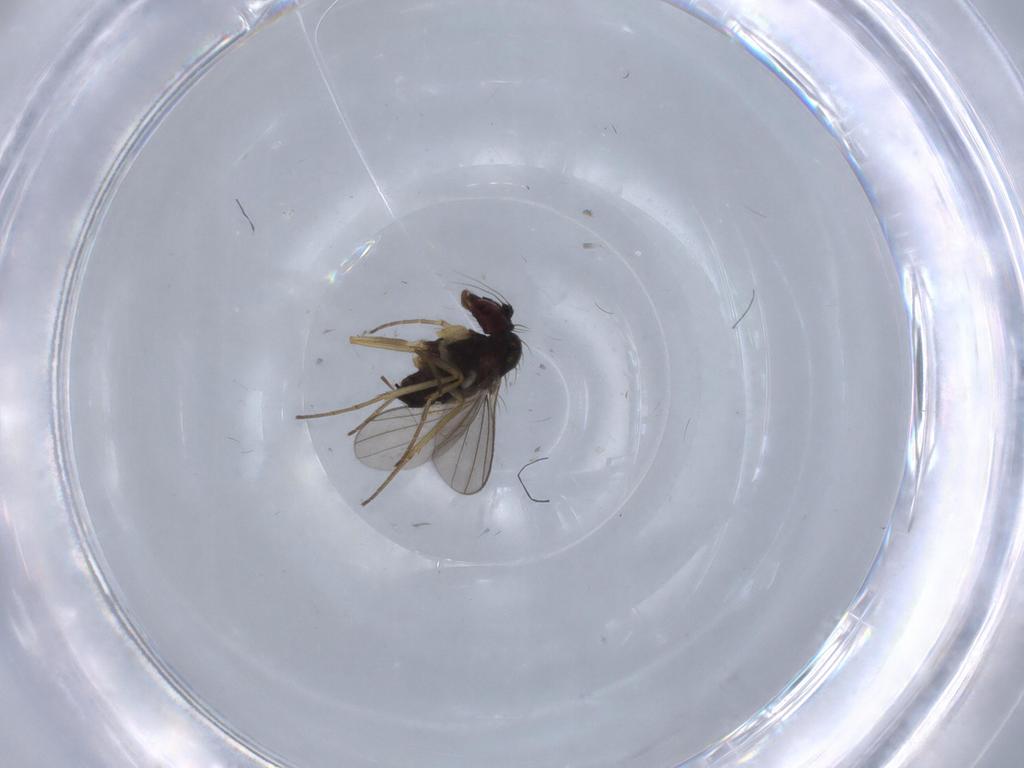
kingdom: Animalia
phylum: Arthropoda
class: Insecta
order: Diptera
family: Dolichopodidae
